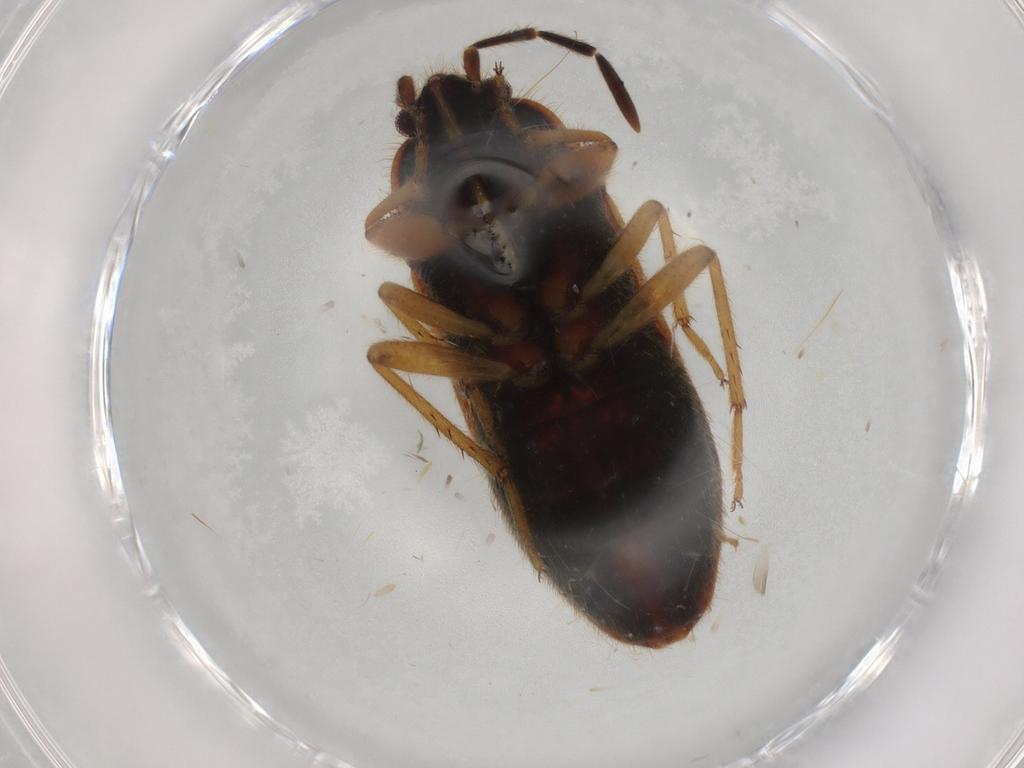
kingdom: Animalia
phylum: Arthropoda
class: Insecta
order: Hemiptera
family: Rhyparochromidae
